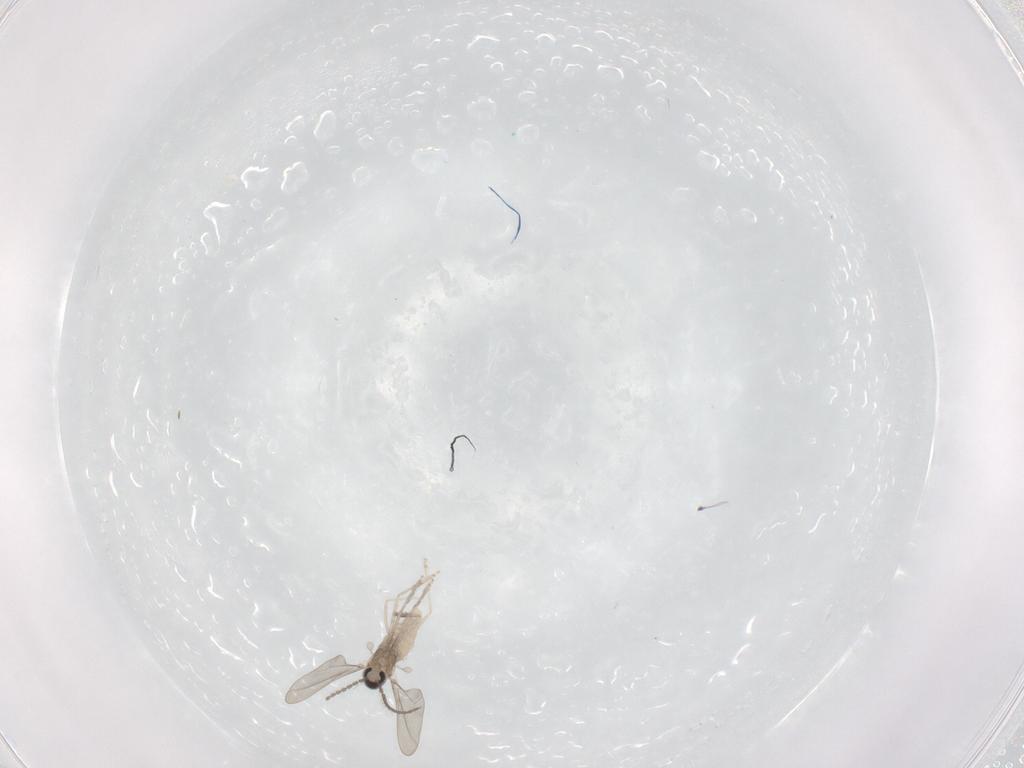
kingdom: Animalia
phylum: Arthropoda
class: Insecta
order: Diptera
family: Cecidomyiidae
